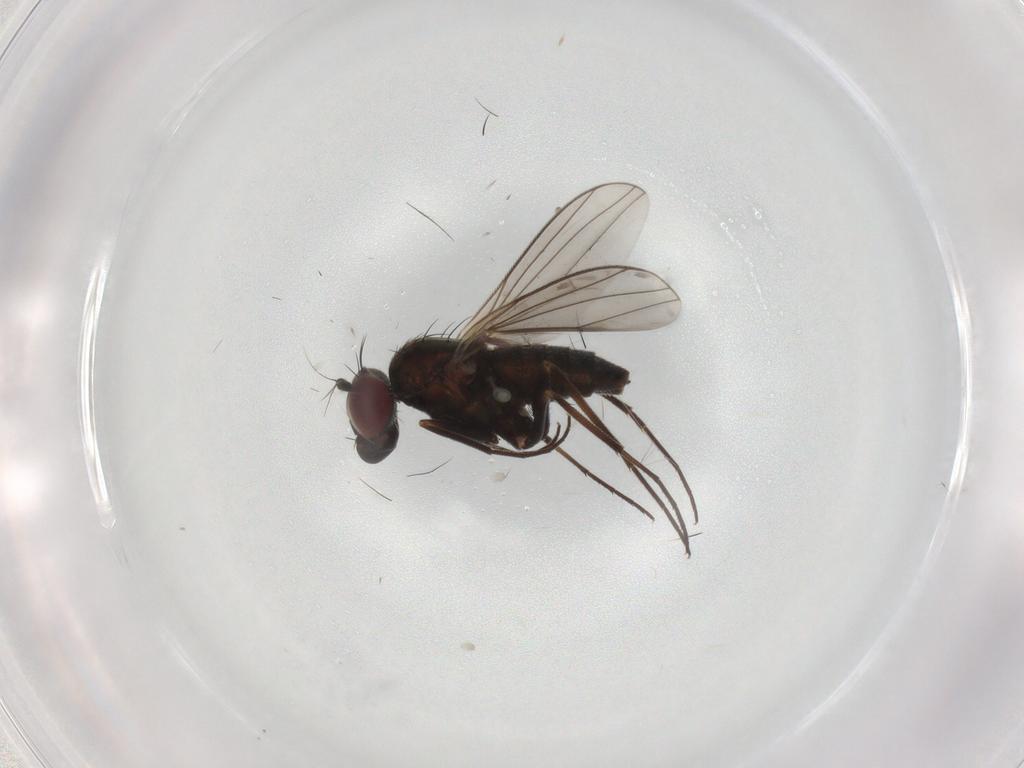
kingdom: Animalia
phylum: Arthropoda
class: Insecta
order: Diptera
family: Dolichopodidae
